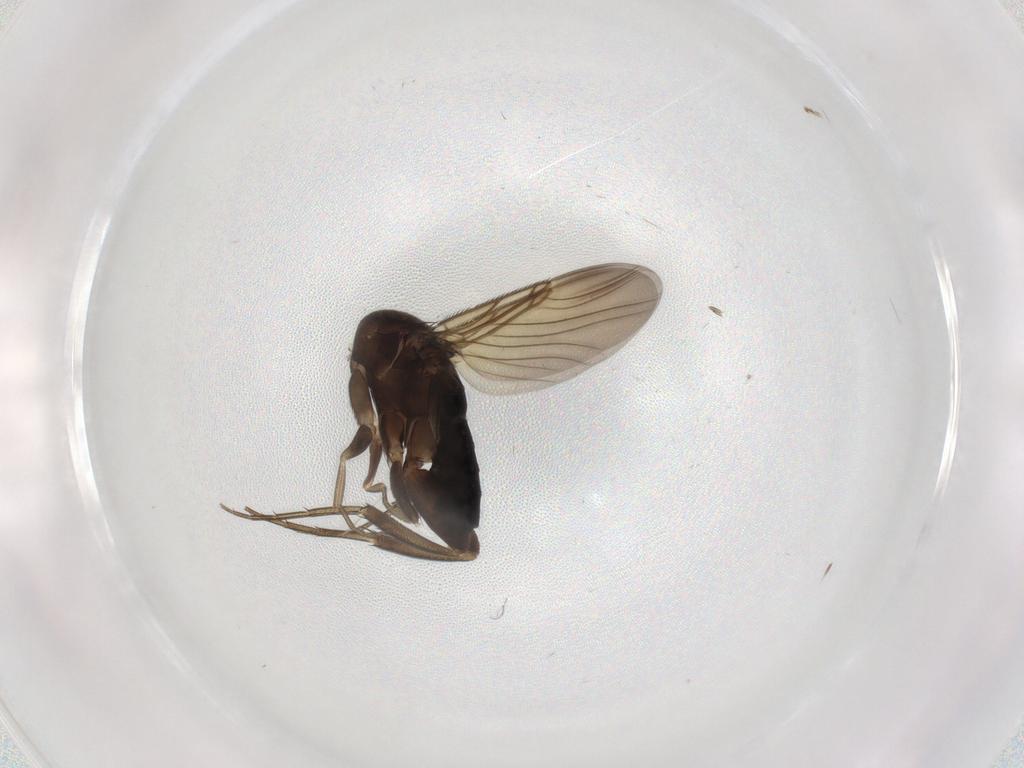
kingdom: Animalia
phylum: Arthropoda
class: Insecta
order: Diptera
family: Phoridae
